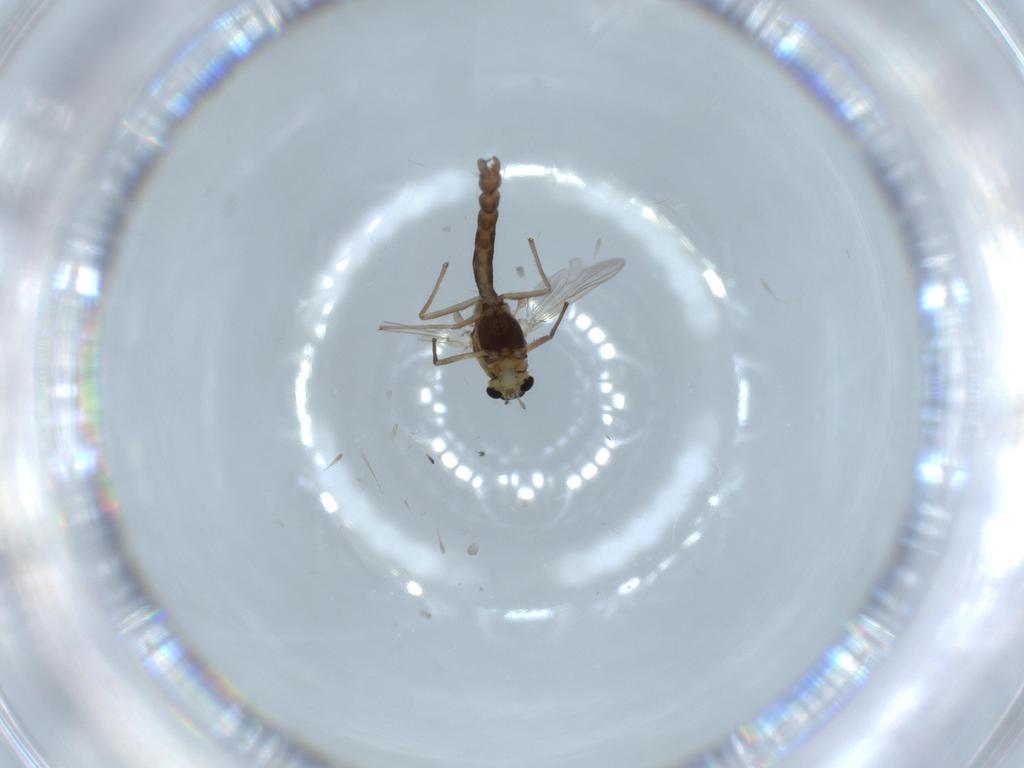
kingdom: Animalia
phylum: Arthropoda
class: Insecta
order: Diptera
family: Chironomidae
